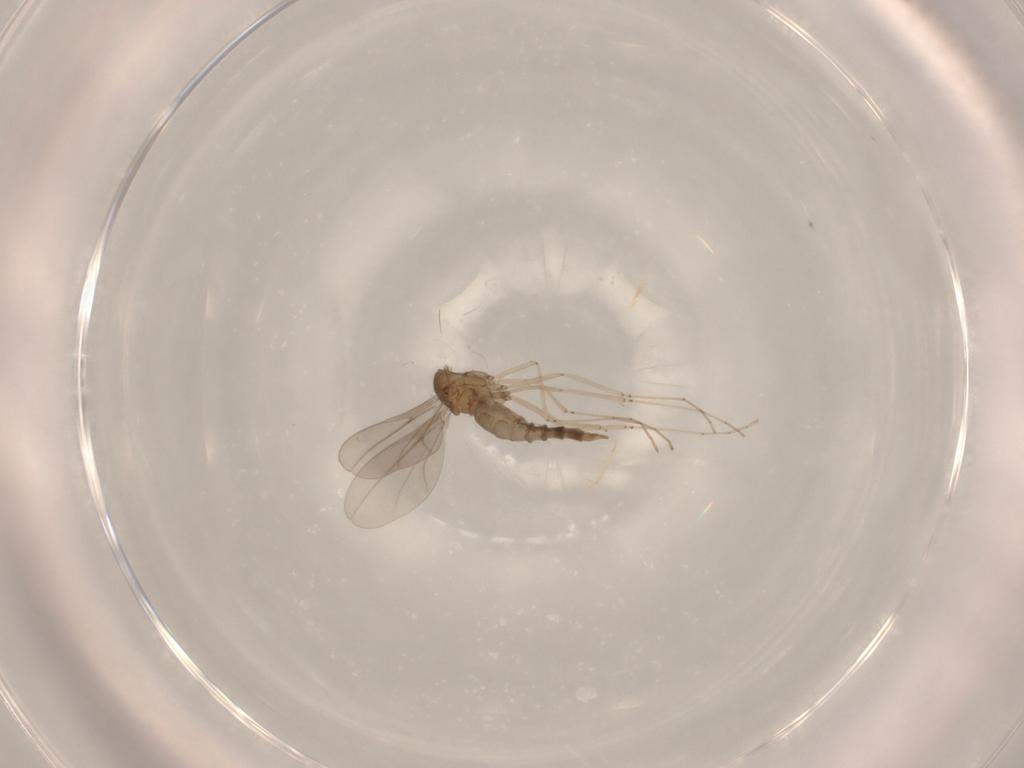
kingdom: Animalia
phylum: Arthropoda
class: Insecta
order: Diptera
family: Cecidomyiidae
